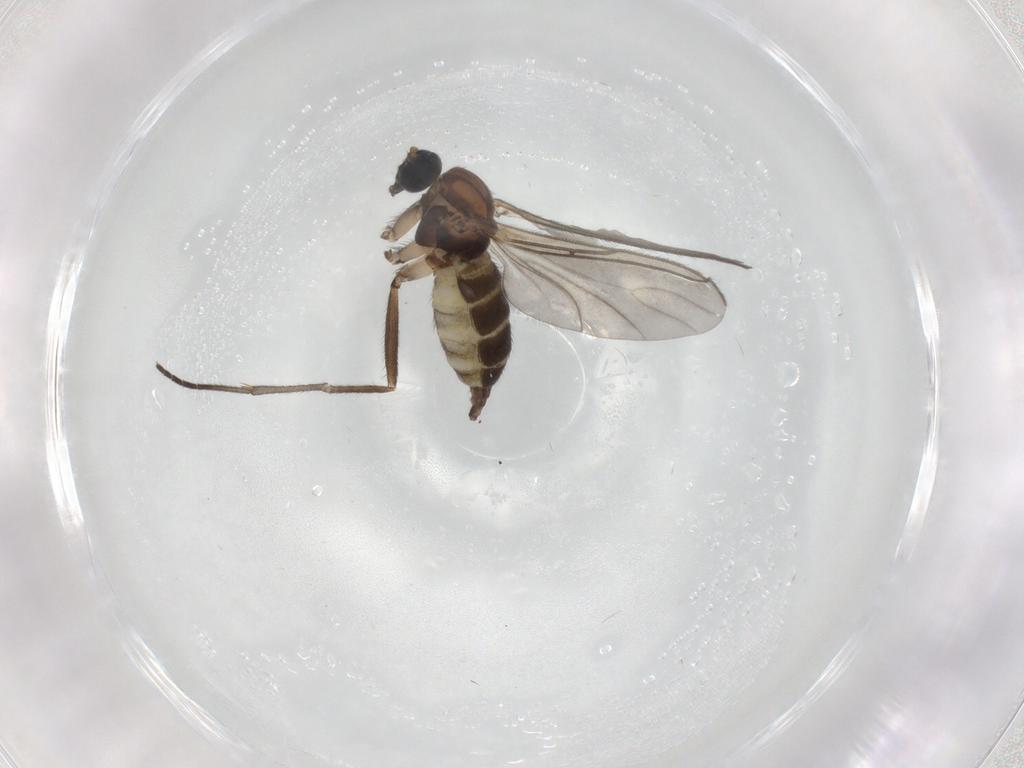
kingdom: Animalia
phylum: Arthropoda
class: Insecta
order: Diptera
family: Sciaridae
